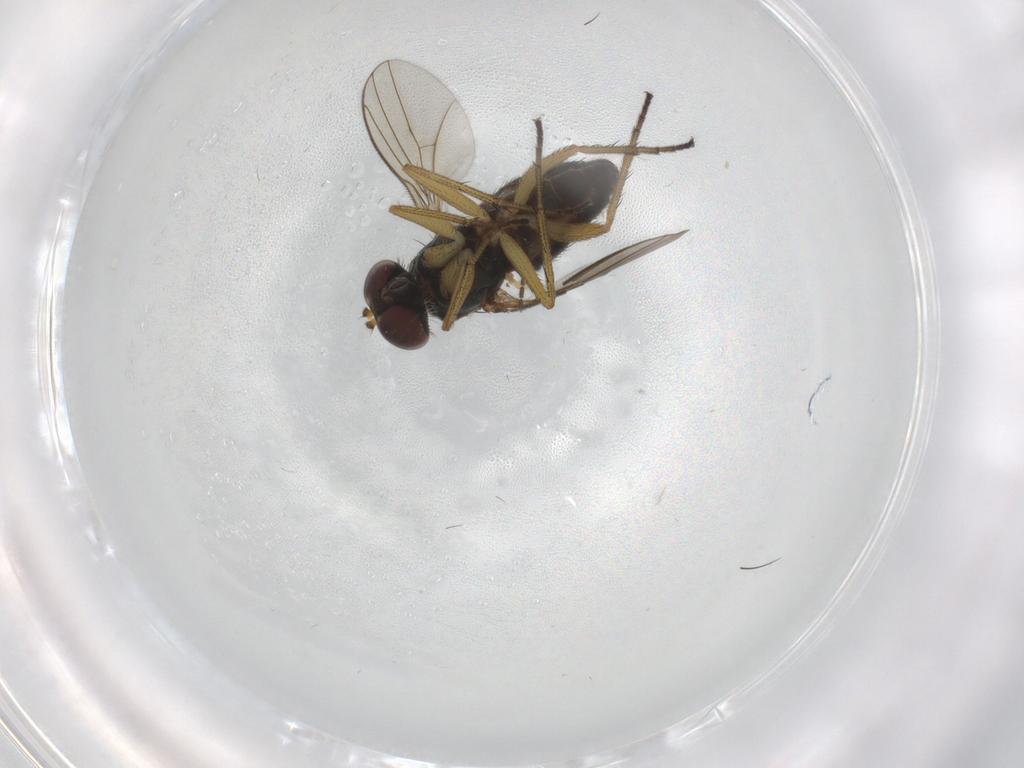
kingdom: Animalia
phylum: Arthropoda
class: Insecta
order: Diptera
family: Sciaridae
